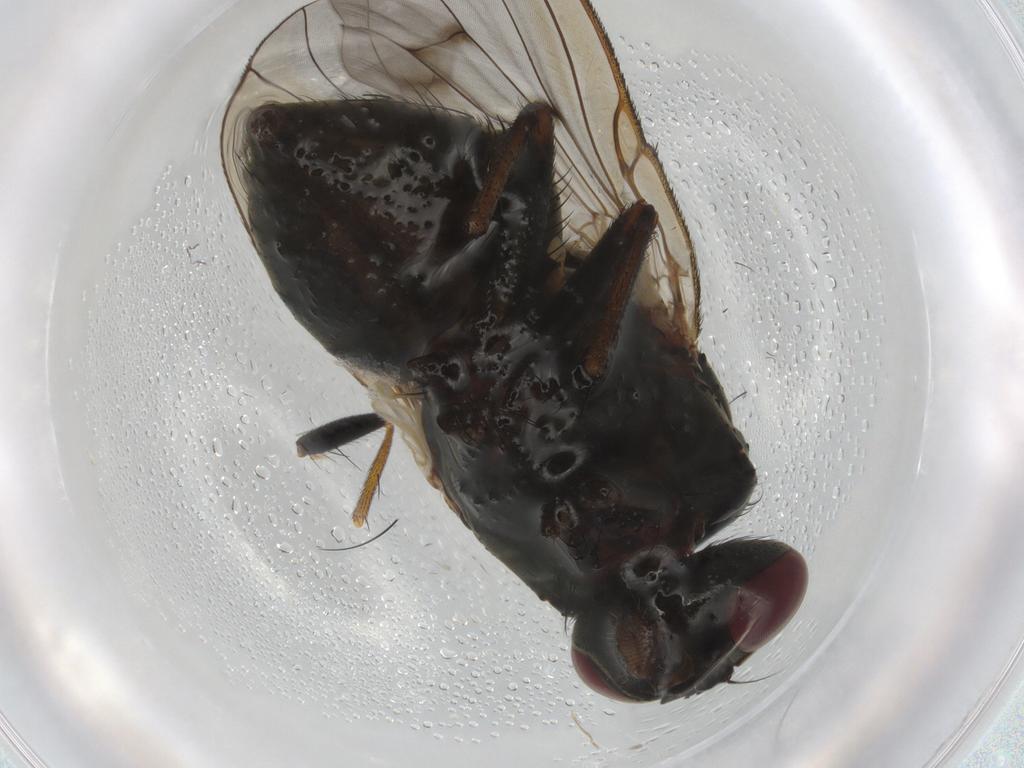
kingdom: Animalia
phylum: Arthropoda
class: Insecta
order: Diptera
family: Muscidae
